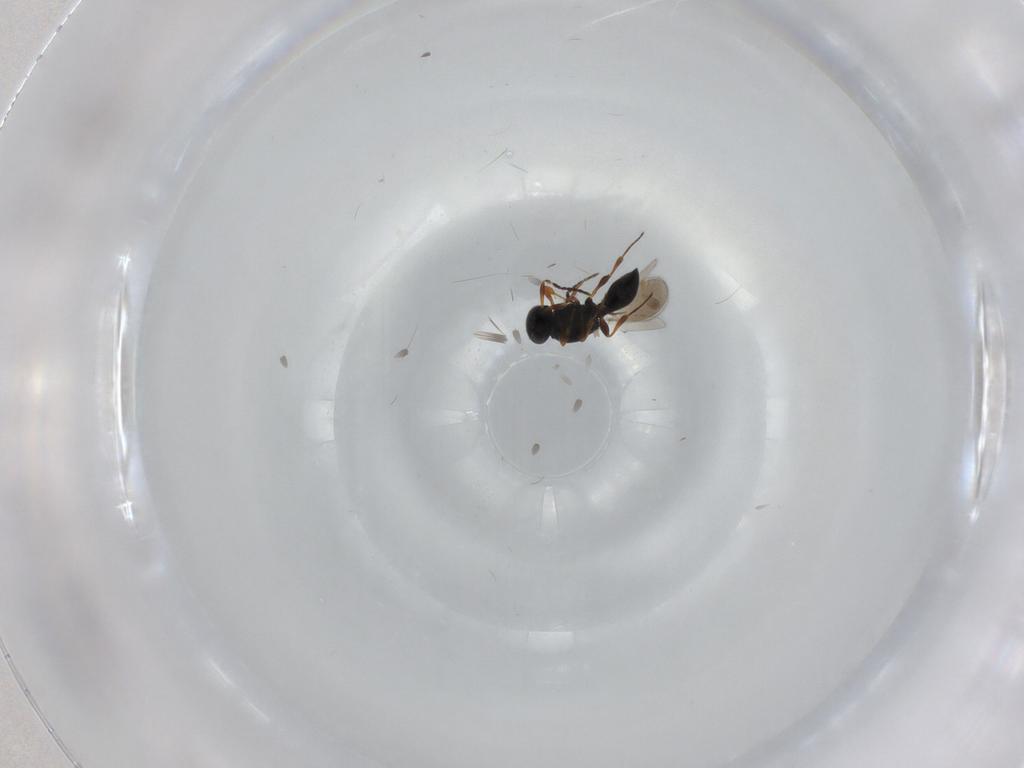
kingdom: Animalia
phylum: Arthropoda
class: Insecta
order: Hymenoptera
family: Platygastridae
